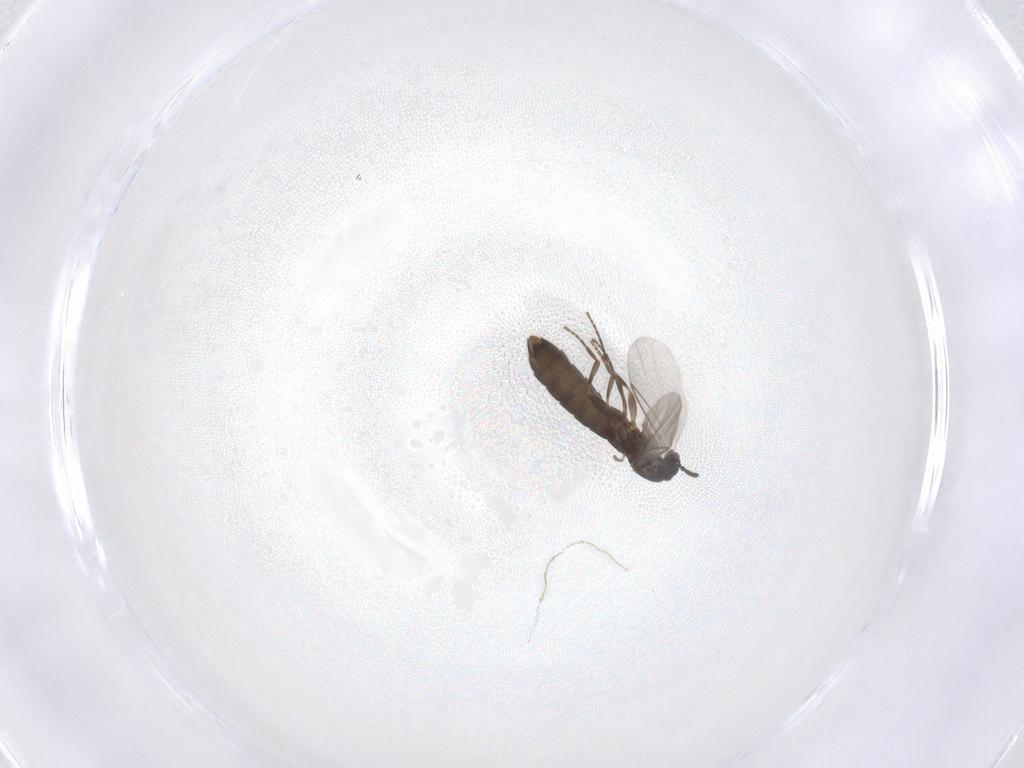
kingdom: Animalia
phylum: Arthropoda
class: Insecta
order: Diptera
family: Scatopsidae
